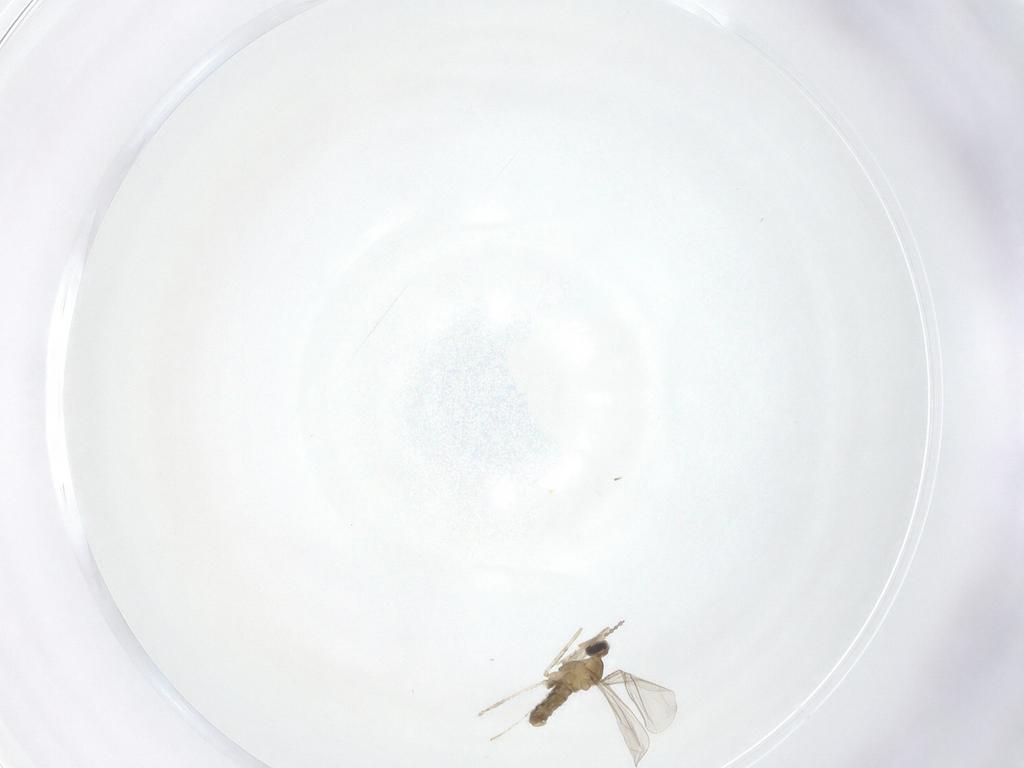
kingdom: Animalia
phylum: Arthropoda
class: Insecta
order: Diptera
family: Cecidomyiidae
